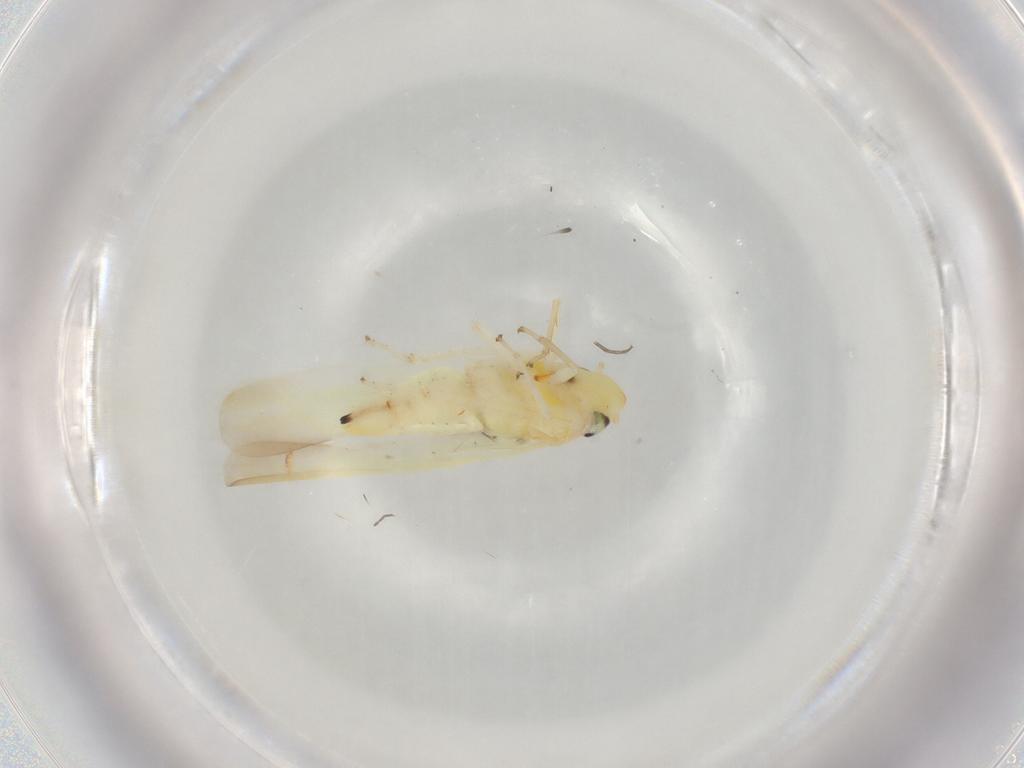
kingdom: Animalia
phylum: Arthropoda
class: Insecta
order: Hemiptera
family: Cicadellidae
